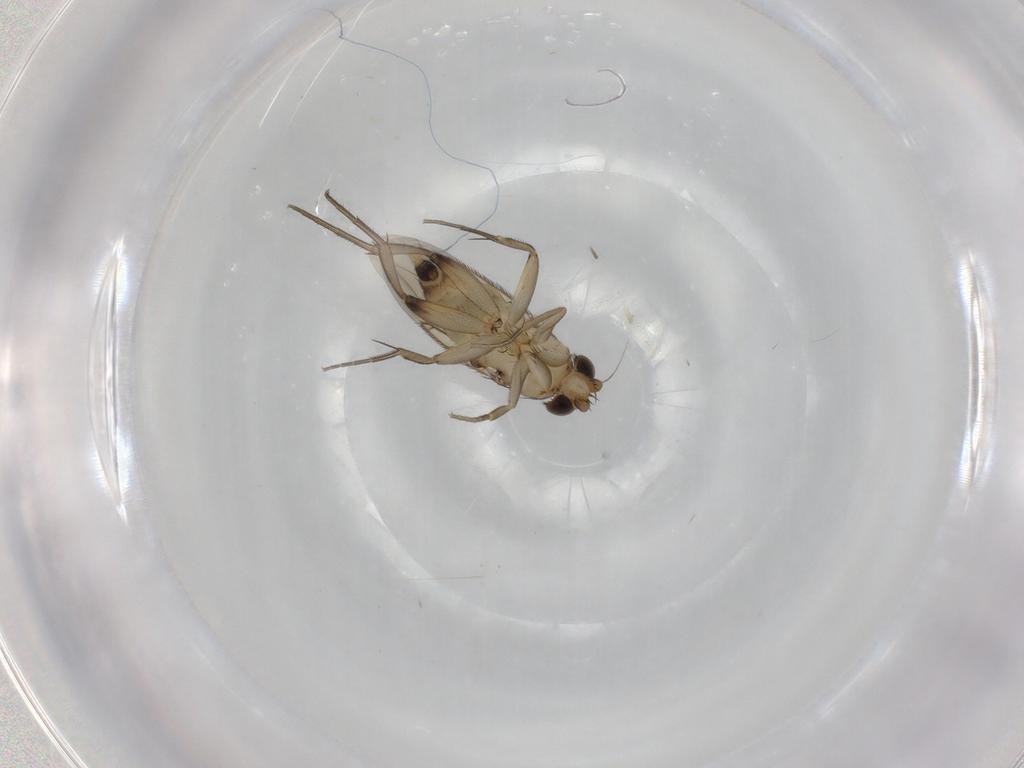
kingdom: Animalia
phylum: Arthropoda
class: Insecta
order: Diptera
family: Phoridae
